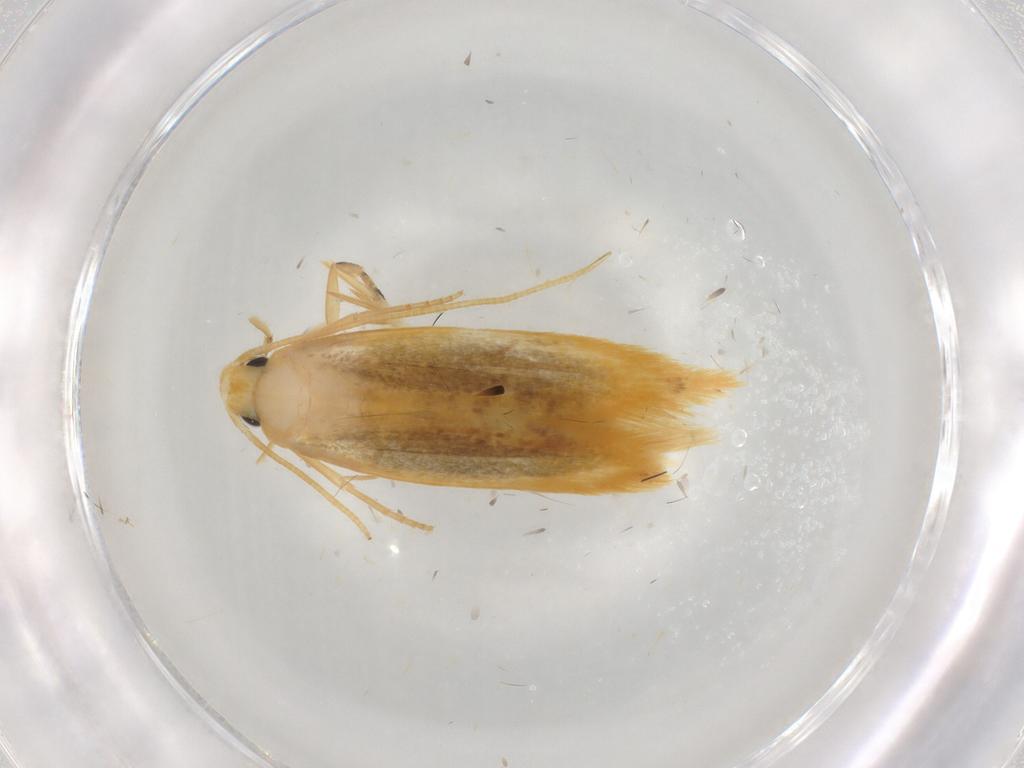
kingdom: Animalia
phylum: Arthropoda
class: Insecta
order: Lepidoptera
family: Tineidae
